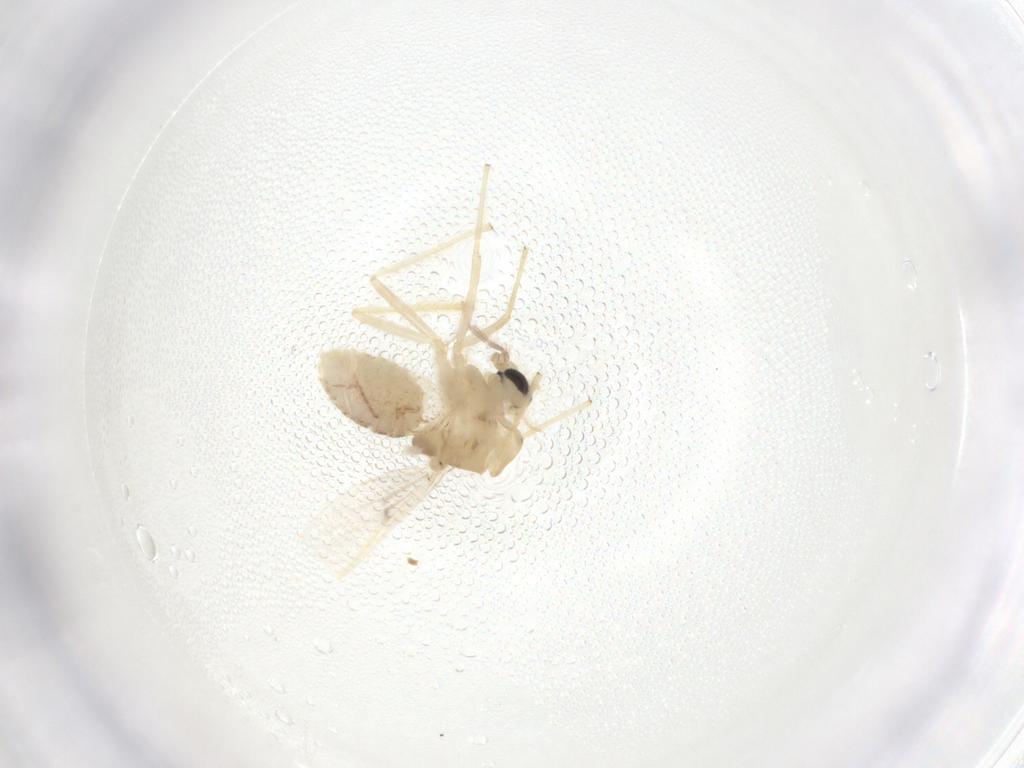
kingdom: Animalia
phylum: Arthropoda
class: Insecta
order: Diptera
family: Chironomidae
